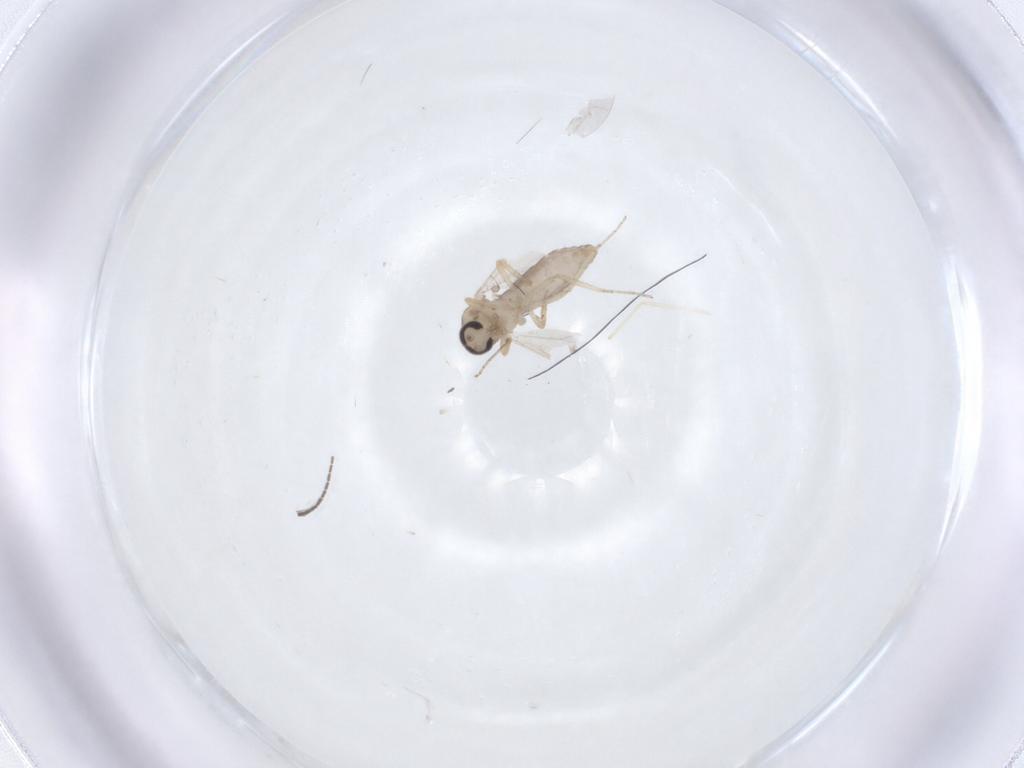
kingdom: Animalia
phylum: Arthropoda
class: Insecta
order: Diptera
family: Ceratopogonidae
